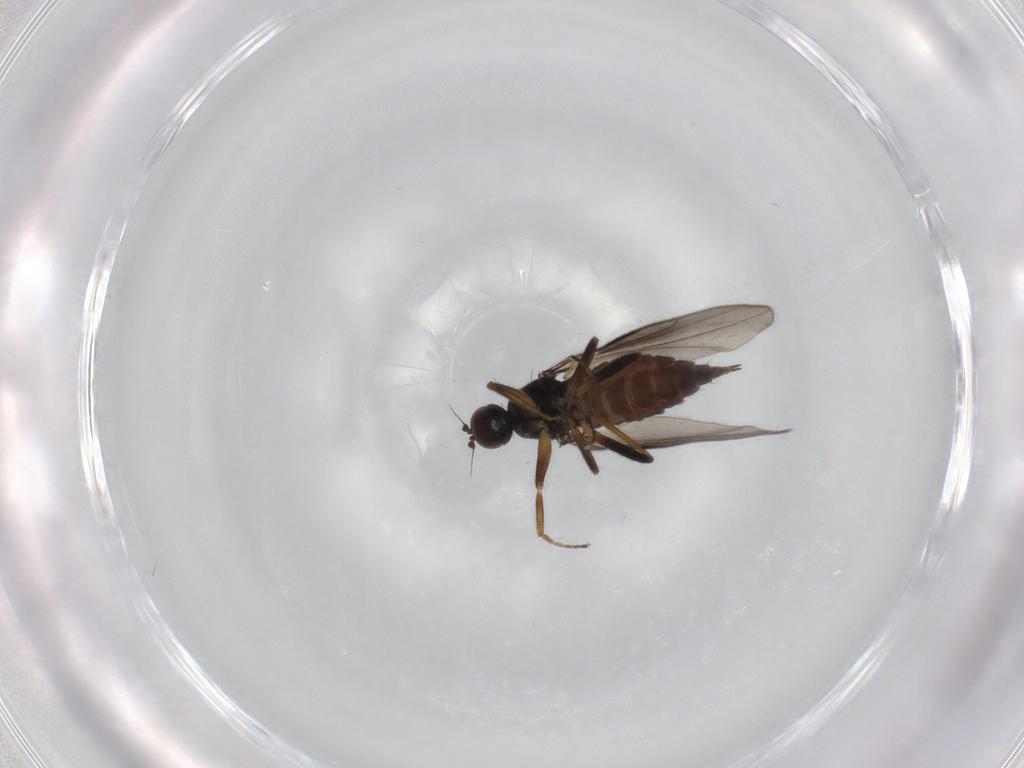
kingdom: Animalia
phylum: Arthropoda
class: Insecta
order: Diptera
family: Hybotidae
